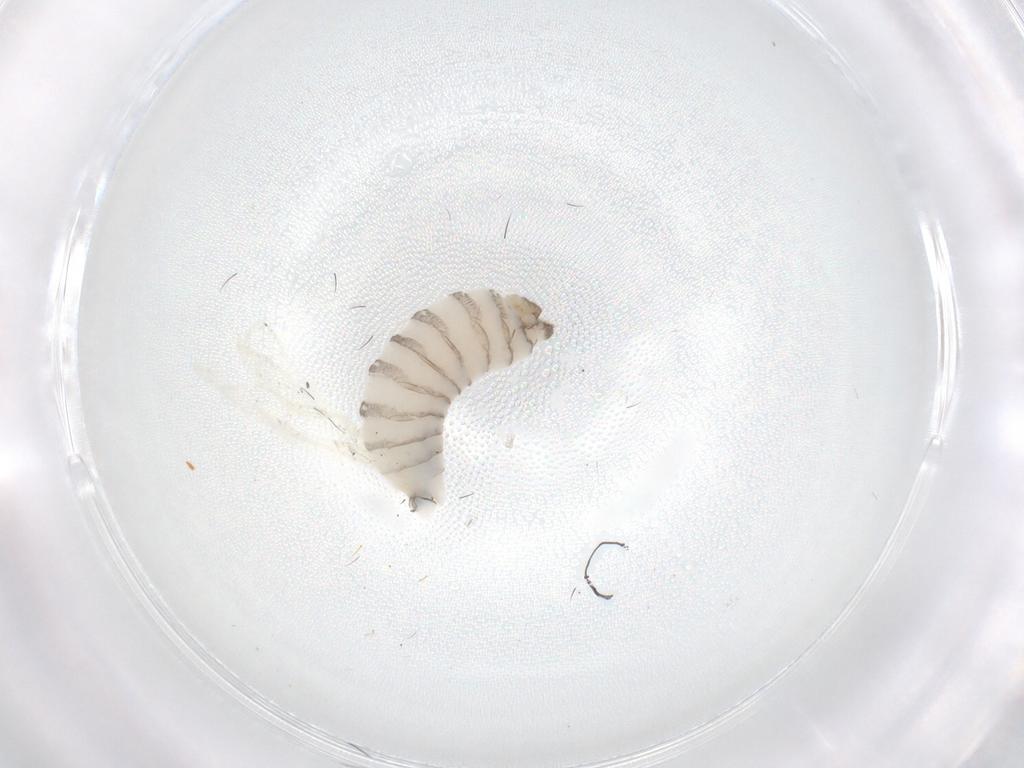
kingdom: Animalia
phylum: Arthropoda
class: Insecta
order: Diptera
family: Sarcophagidae
